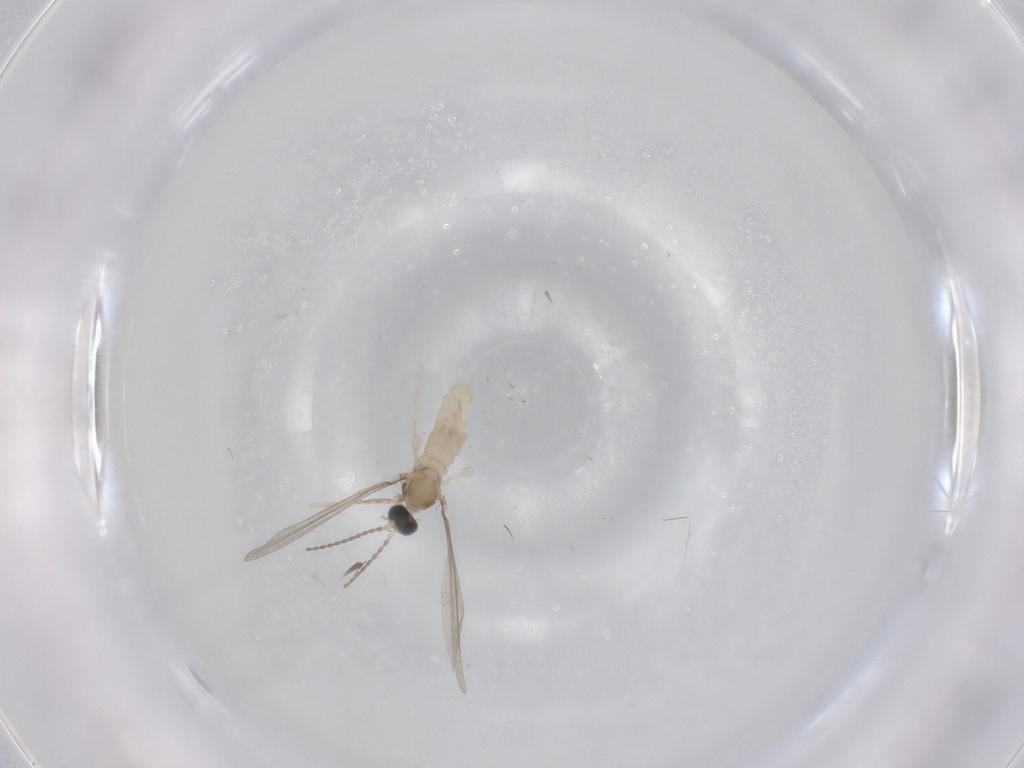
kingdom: Animalia
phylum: Arthropoda
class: Insecta
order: Diptera
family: Cecidomyiidae
